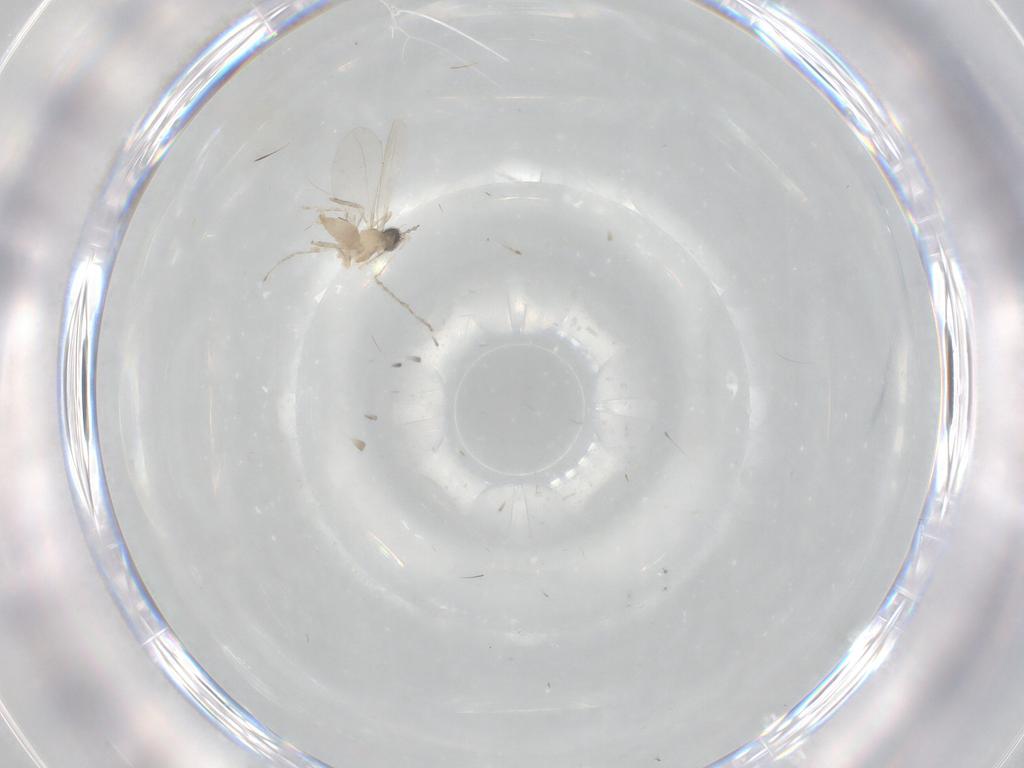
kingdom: Animalia
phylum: Arthropoda
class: Insecta
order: Diptera
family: Cecidomyiidae
